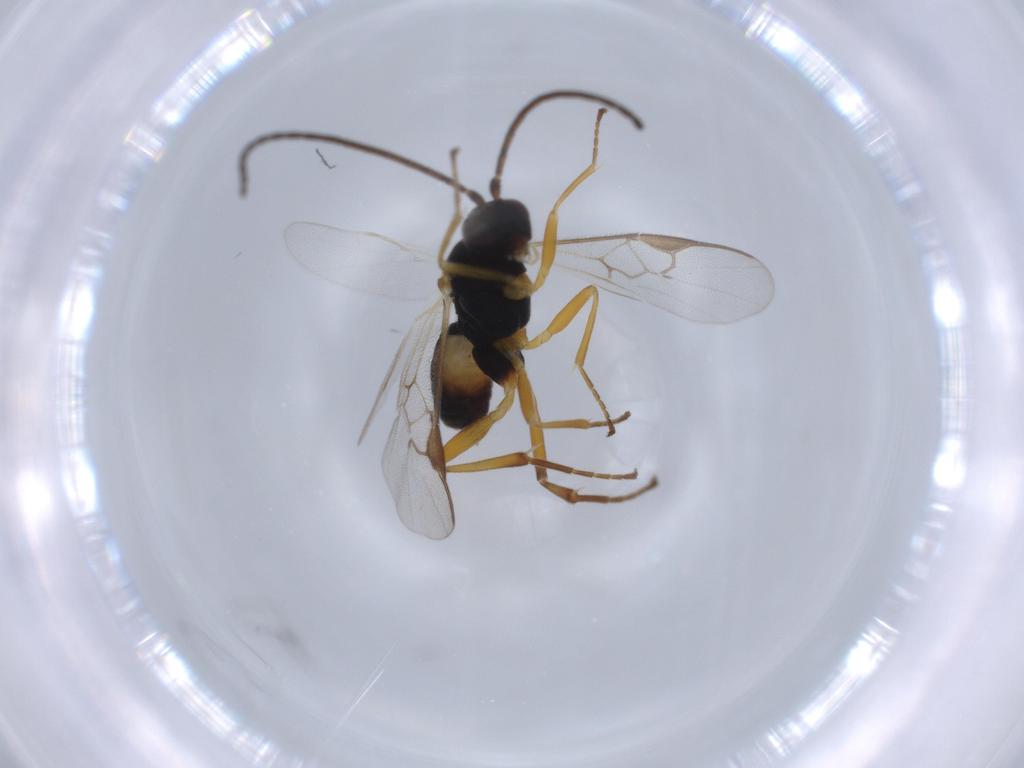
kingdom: Animalia
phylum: Arthropoda
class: Insecta
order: Hymenoptera
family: Braconidae
